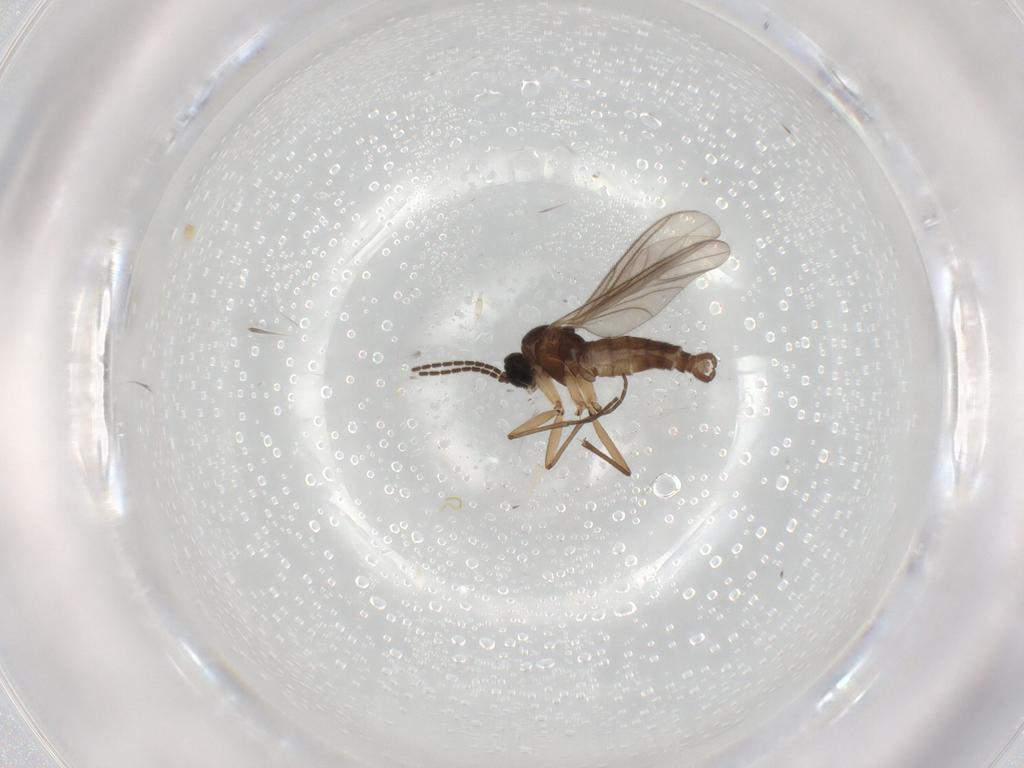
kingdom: Animalia
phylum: Arthropoda
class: Insecta
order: Diptera
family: Sciaridae
